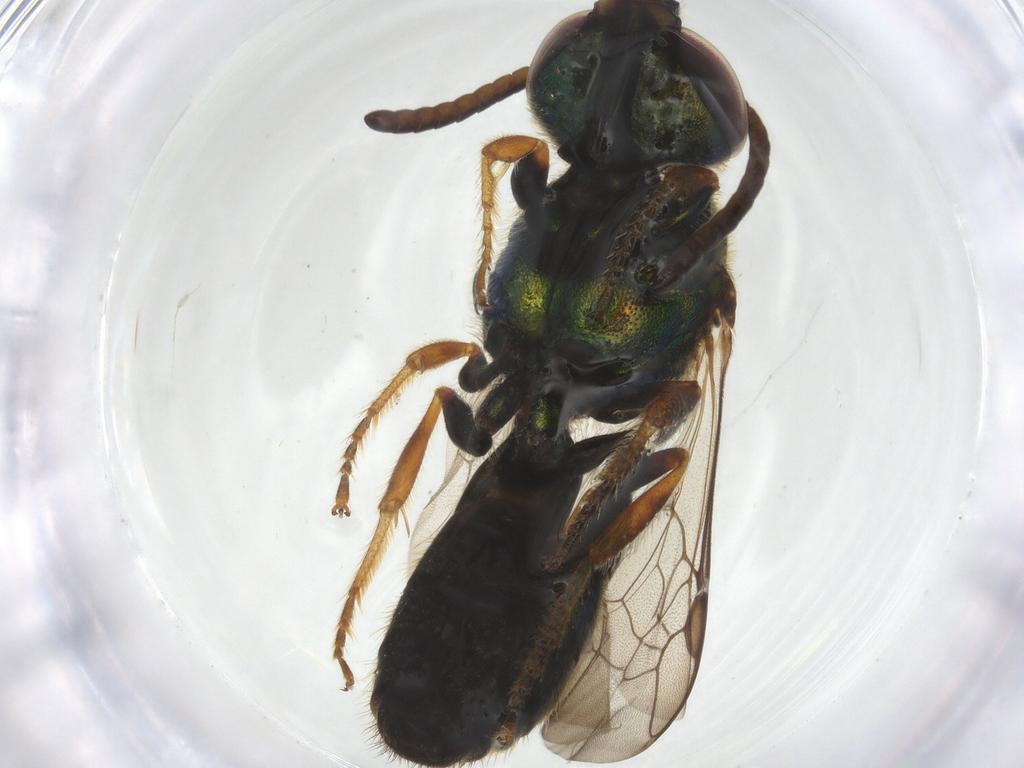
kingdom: Animalia
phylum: Arthropoda
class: Insecta
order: Hymenoptera
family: Diapriidae
